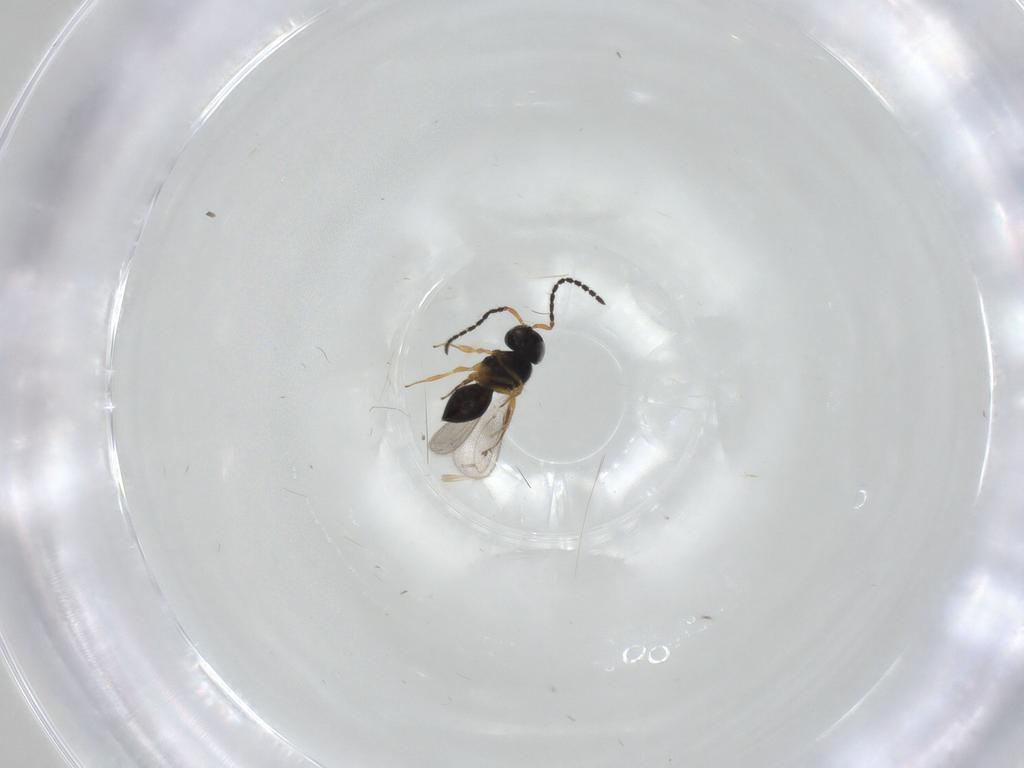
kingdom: Animalia
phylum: Arthropoda
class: Insecta
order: Hymenoptera
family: Scelionidae
